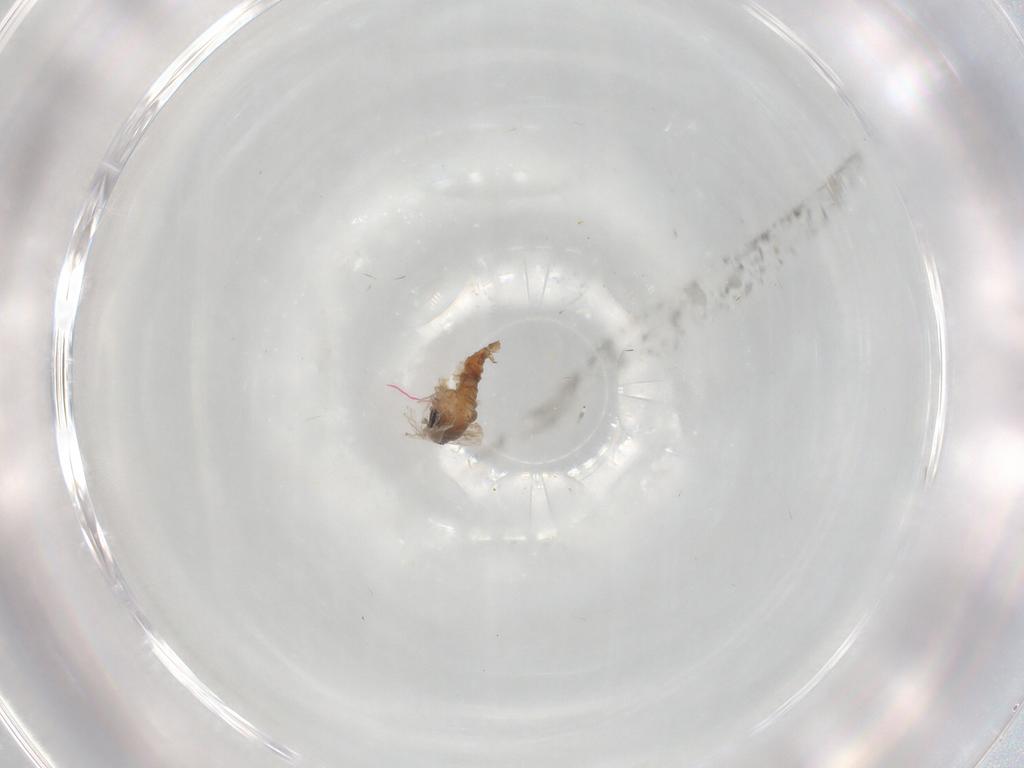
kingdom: Animalia
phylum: Arthropoda
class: Insecta
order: Diptera
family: Psychodidae
